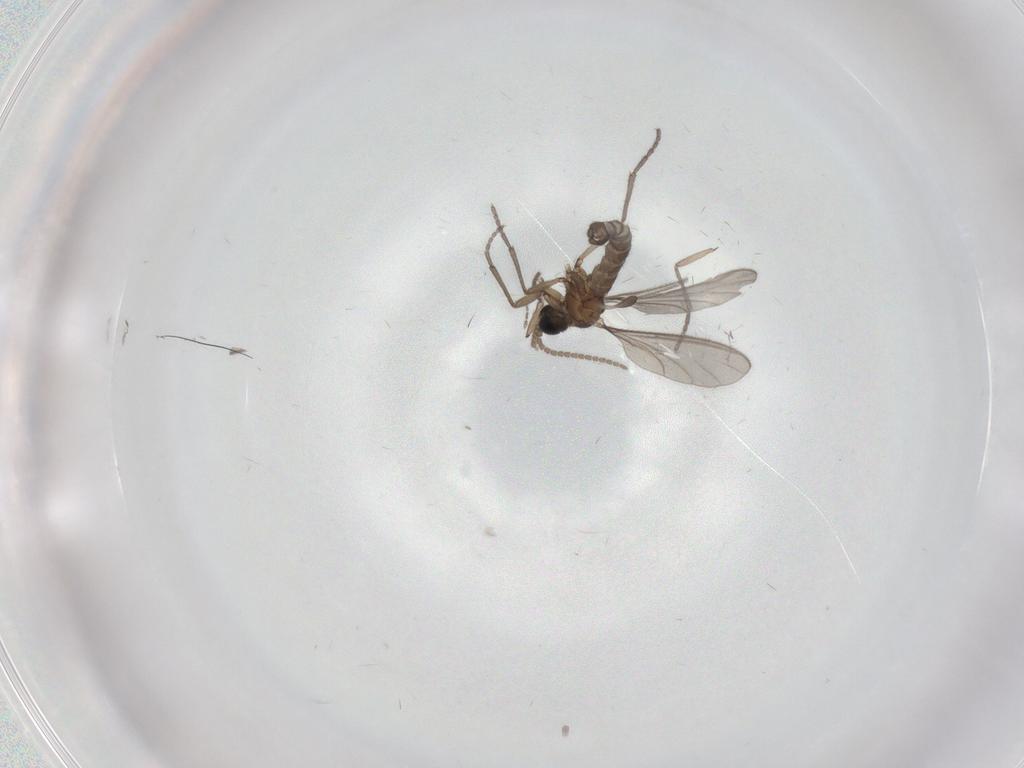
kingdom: Animalia
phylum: Arthropoda
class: Insecta
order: Diptera
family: Sciaridae
